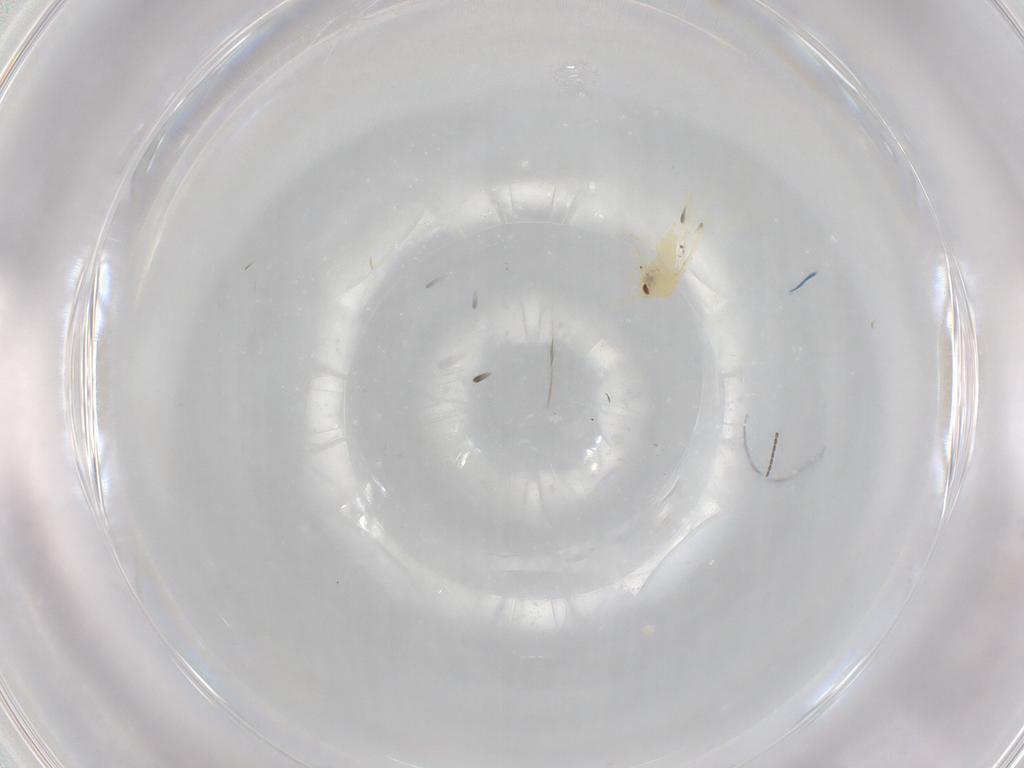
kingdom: Animalia
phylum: Arthropoda
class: Insecta
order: Hemiptera
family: Aleyrodidae
